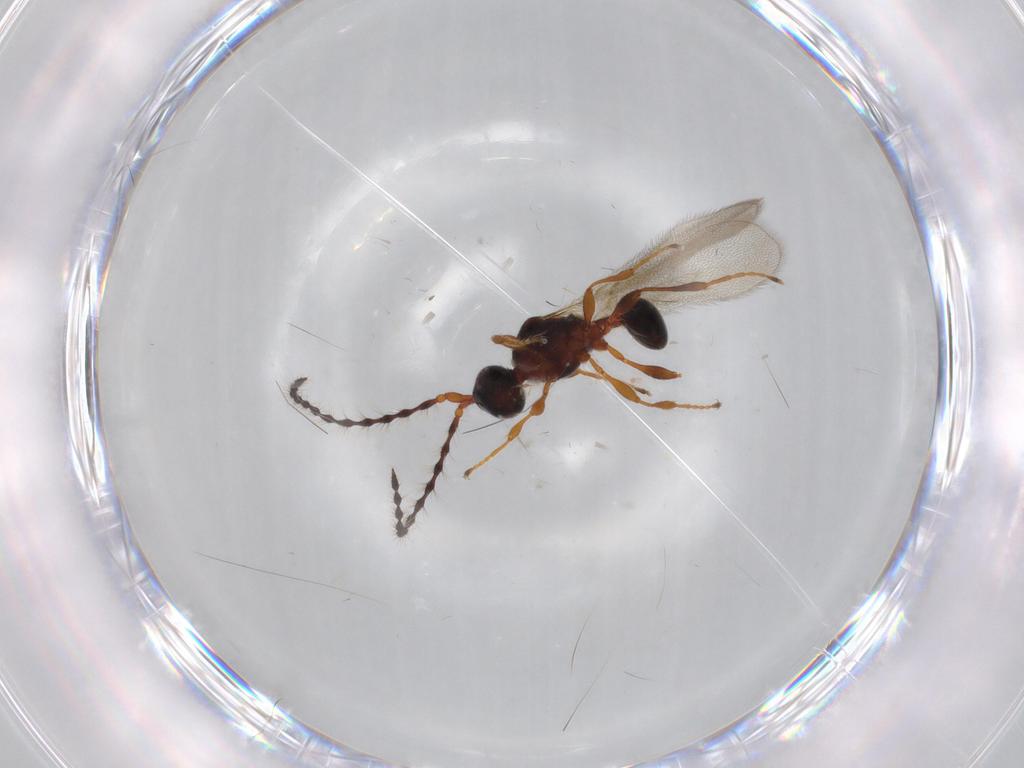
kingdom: Animalia
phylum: Arthropoda
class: Insecta
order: Hymenoptera
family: Diapriidae
